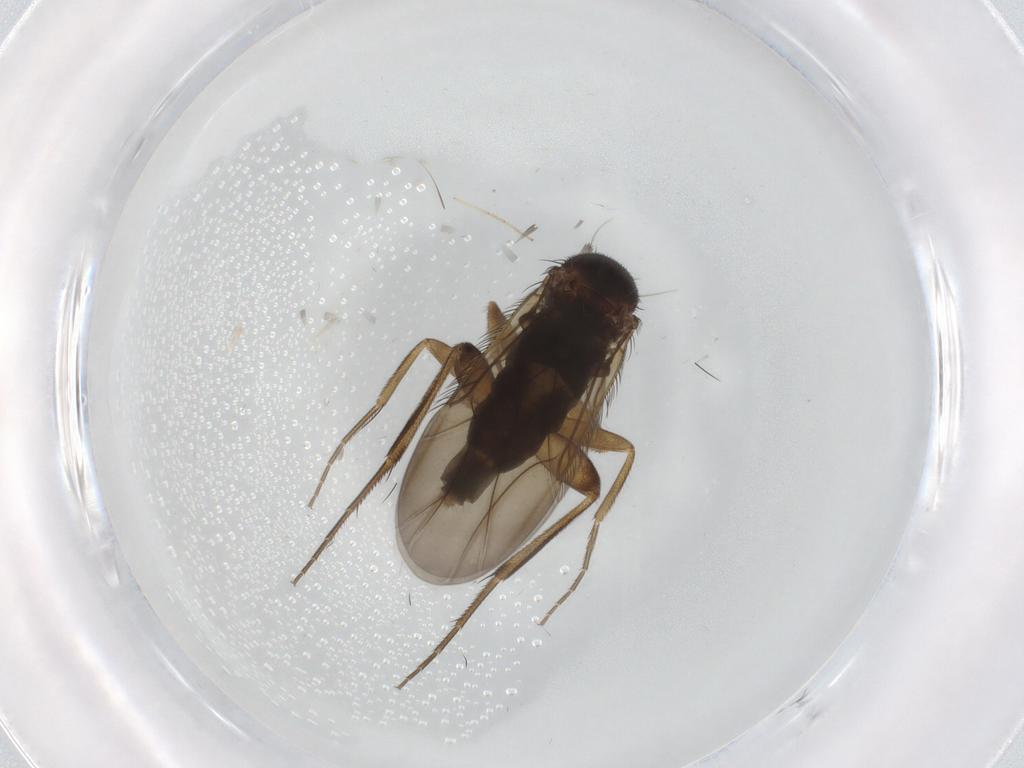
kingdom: Animalia
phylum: Arthropoda
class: Insecta
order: Diptera
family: Phoridae
